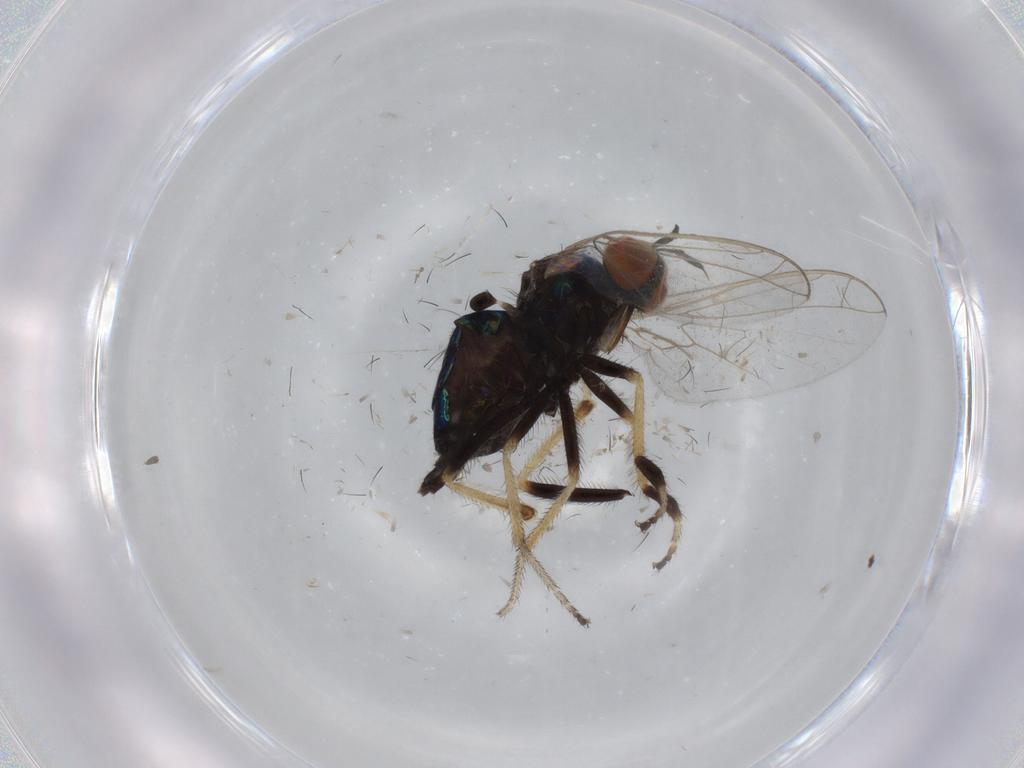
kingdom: Animalia
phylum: Arthropoda
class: Insecta
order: Diptera
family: Empididae
